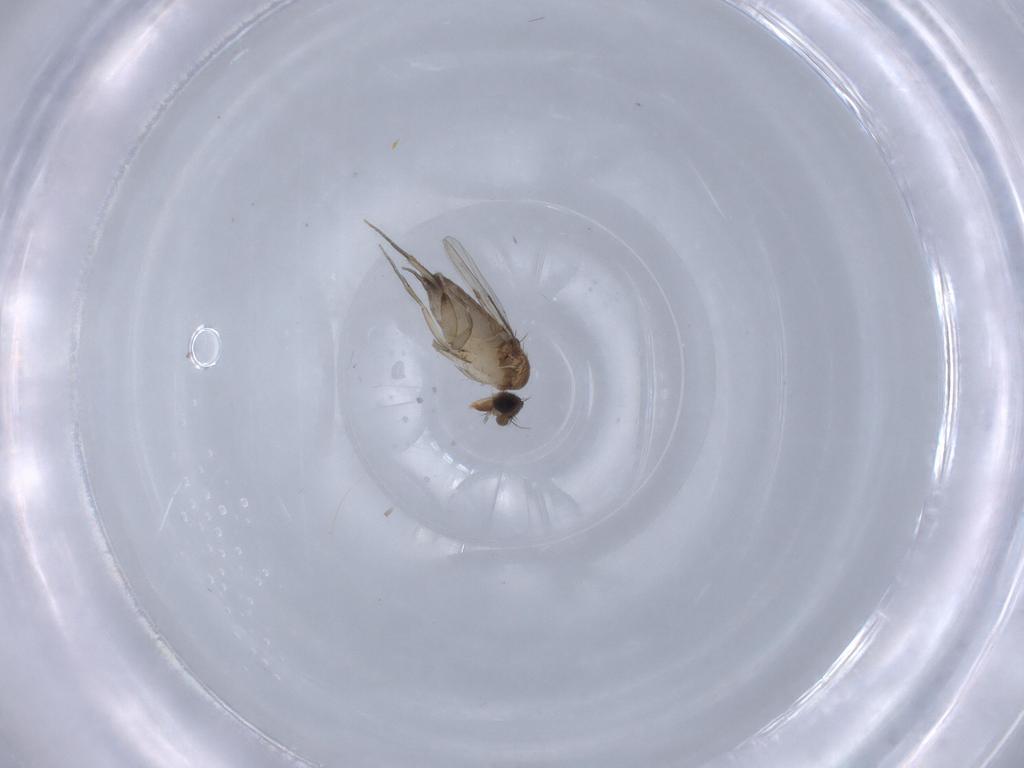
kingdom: Animalia
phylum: Arthropoda
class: Insecta
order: Diptera
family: Phoridae
